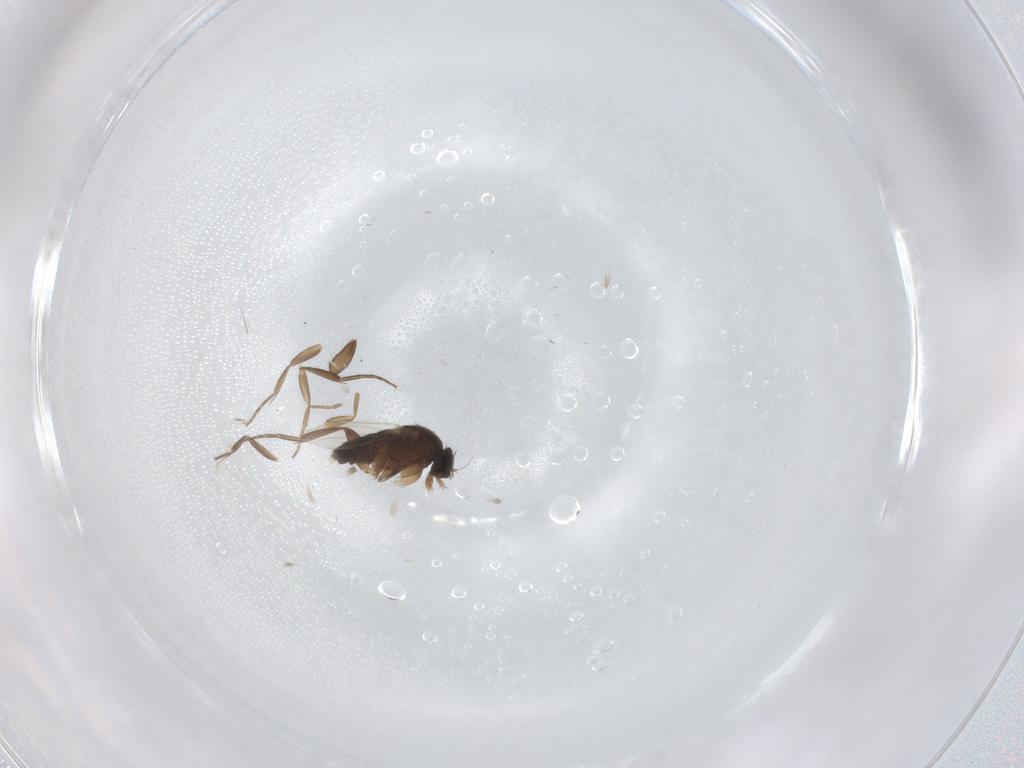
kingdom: Animalia
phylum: Arthropoda
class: Insecta
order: Diptera
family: Phoridae
